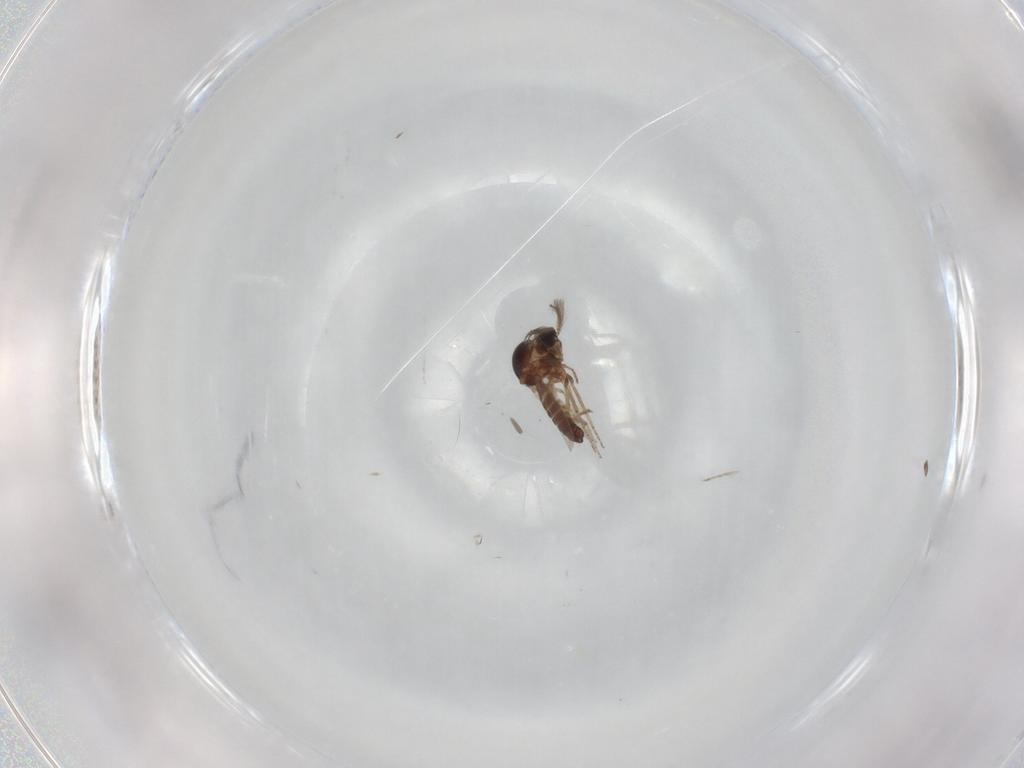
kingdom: Animalia
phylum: Arthropoda
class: Insecta
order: Diptera
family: Ceratopogonidae
